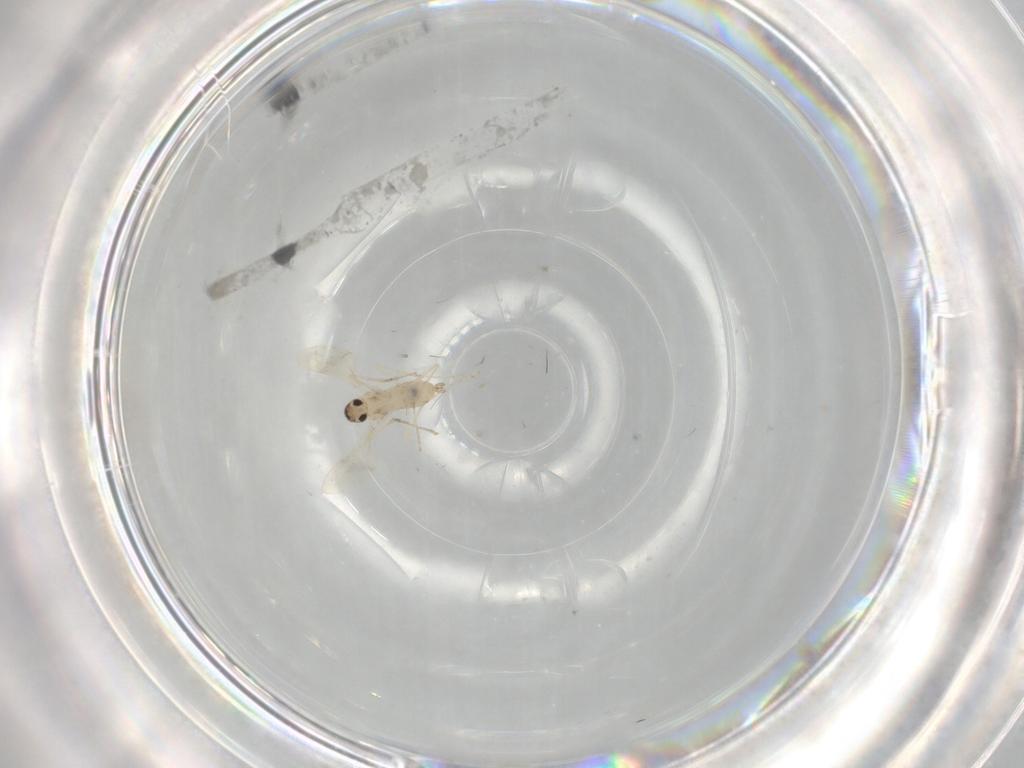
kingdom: Animalia
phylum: Arthropoda
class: Insecta
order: Diptera
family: Cecidomyiidae
